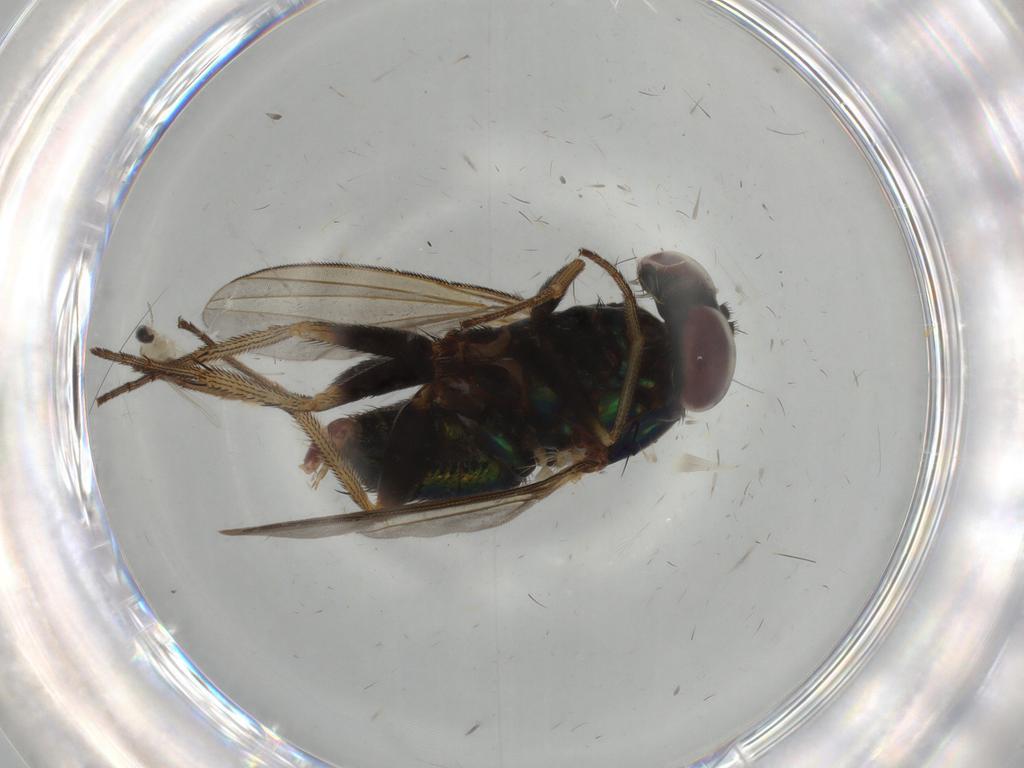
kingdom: Animalia
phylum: Arthropoda
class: Insecta
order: Diptera
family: Dolichopodidae
